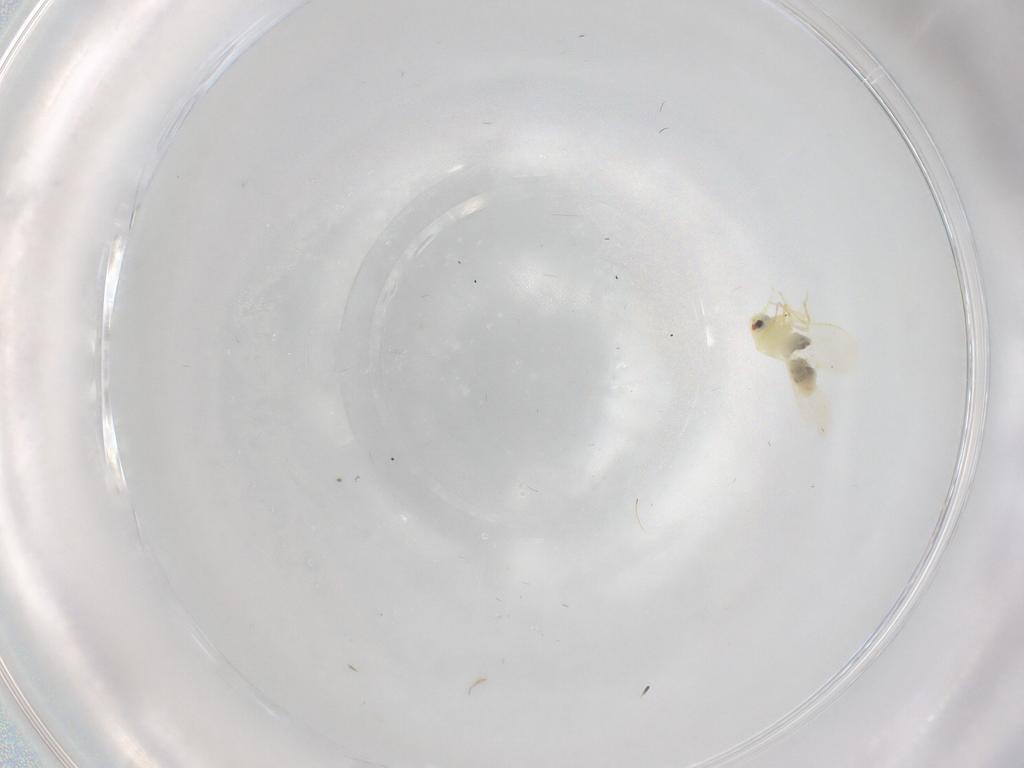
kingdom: Animalia
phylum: Arthropoda
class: Insecta
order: Hemiptera
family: Aleyrodidae
